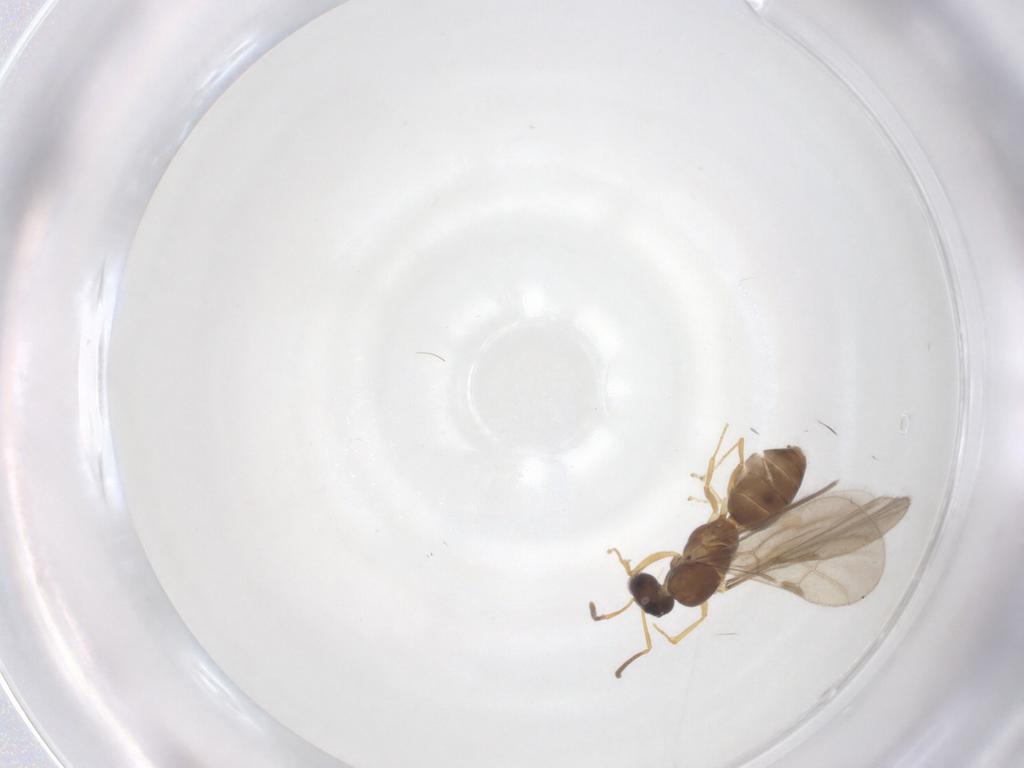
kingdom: Animalia
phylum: Arthropoda
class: Insecta
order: Hymenoptera
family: Formicidae
